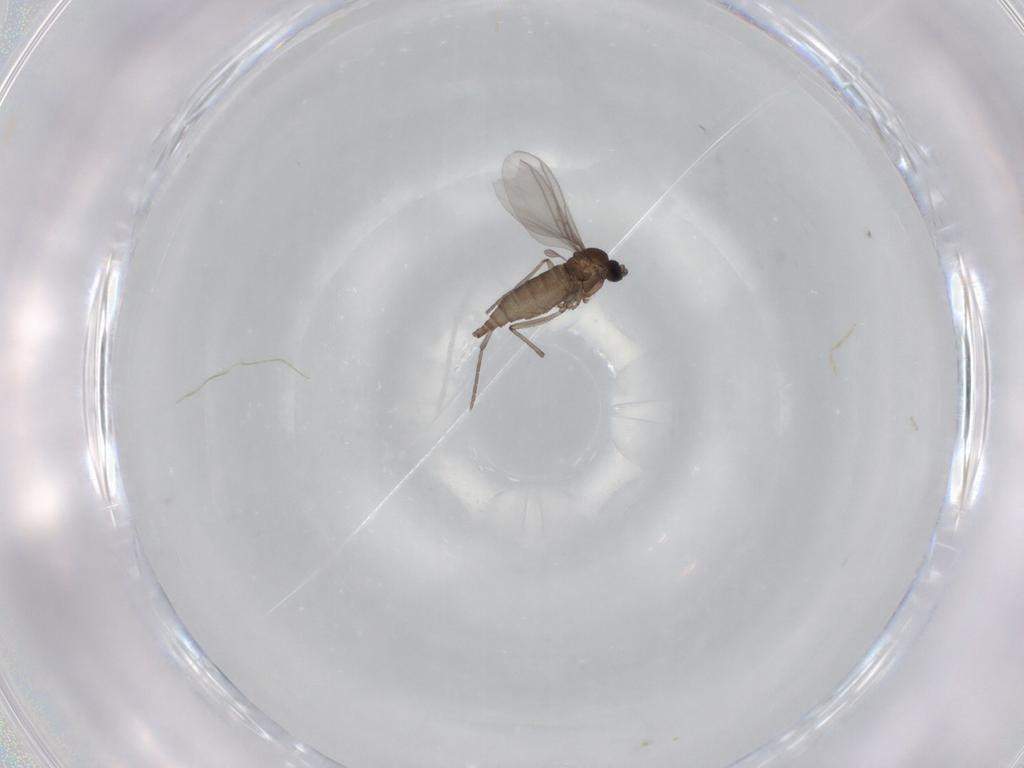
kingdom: Animalia
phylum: Arthropoda
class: Insecta
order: Diptera
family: Sciaridae
